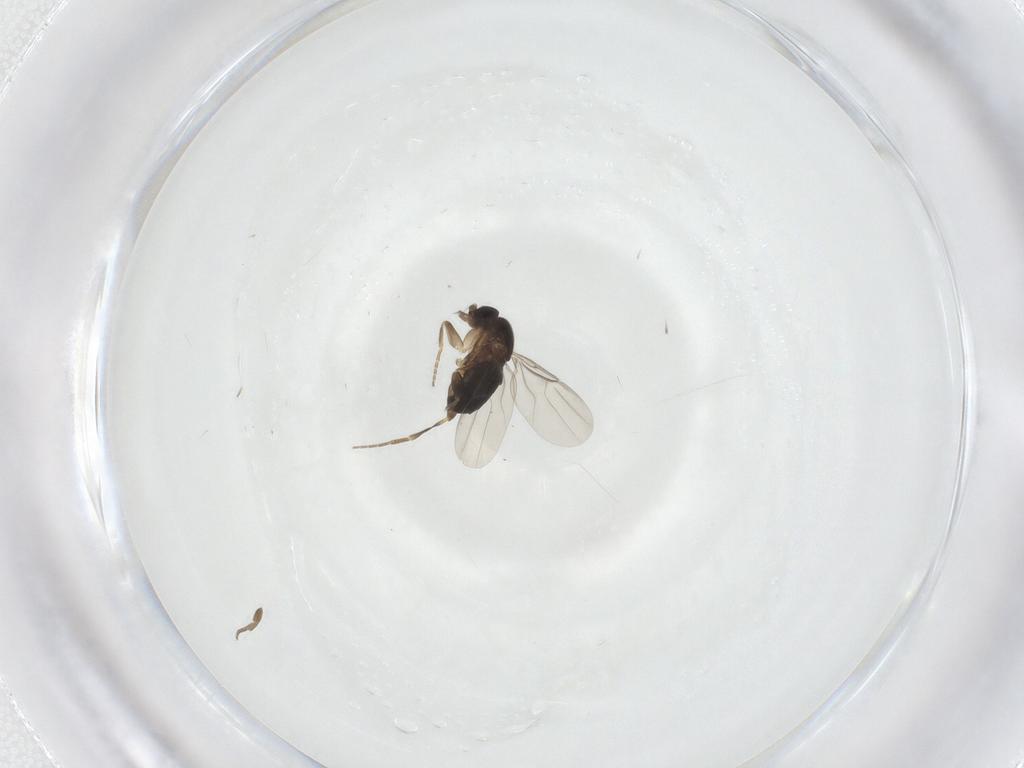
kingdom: Animalia
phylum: Arthropoda
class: Insecta
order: Diptera
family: Phoridae
